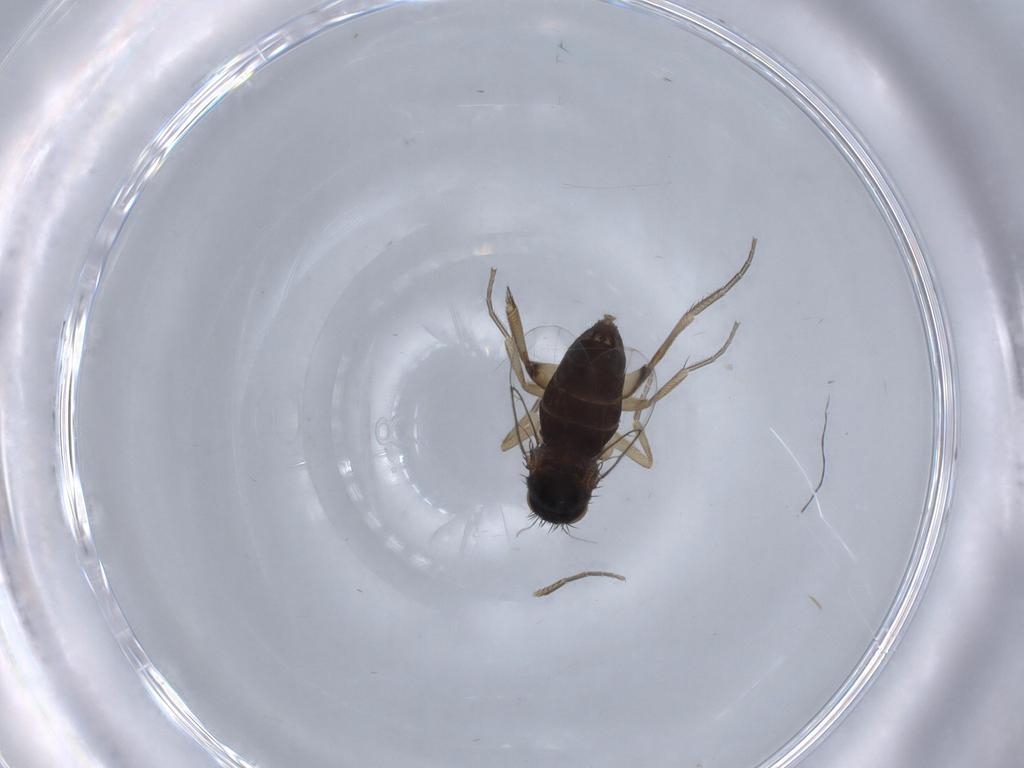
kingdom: Animalia
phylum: Arthropoda
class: Insecta
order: Diptera
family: Phoridae
